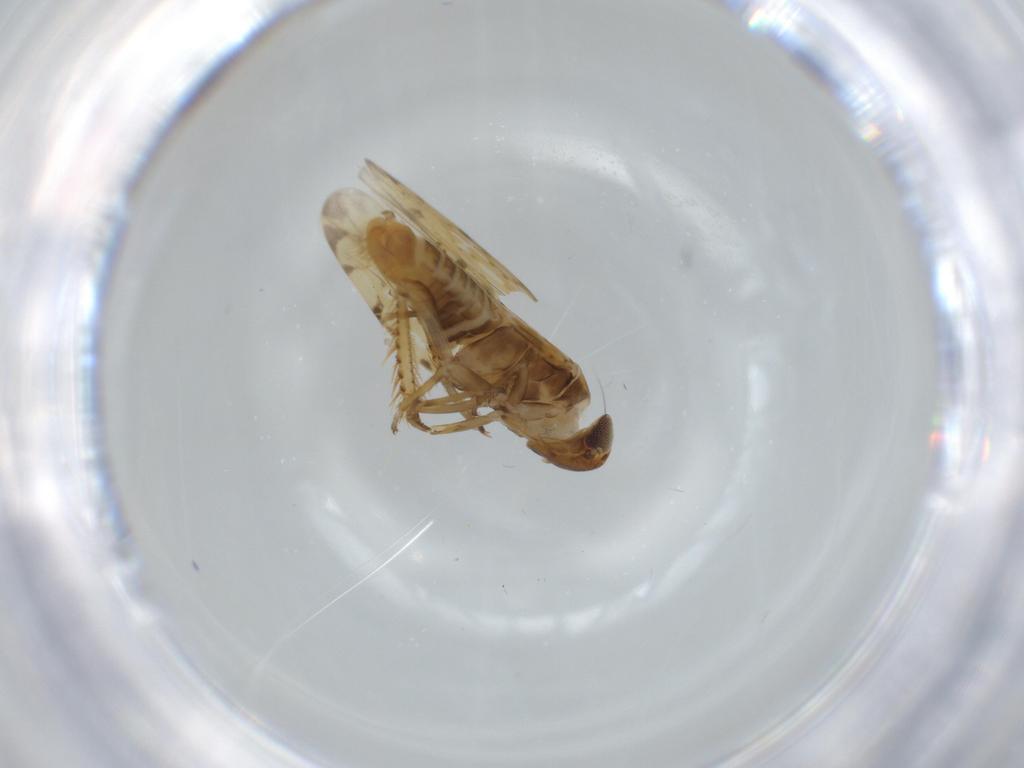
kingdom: Animalia
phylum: Arthropoda
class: Insecta
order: Hemiptera
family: Cicadellidae
